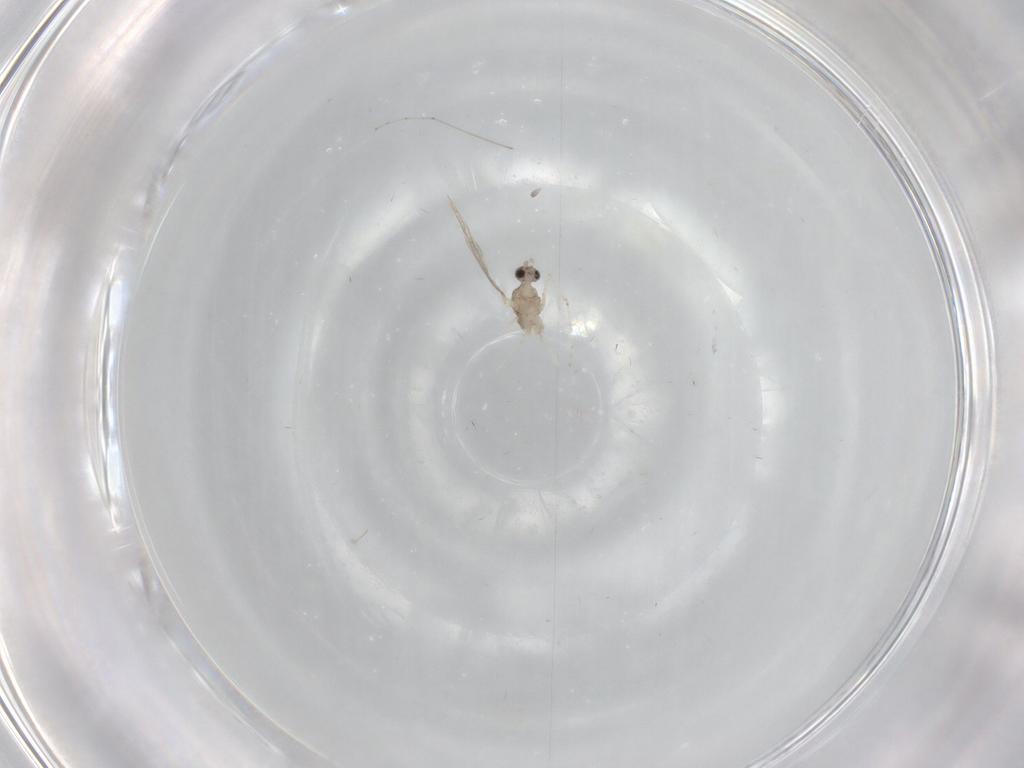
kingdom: Animalia
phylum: Arthropoda
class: Insecta
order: Diptera
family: Cecidomyiidae
